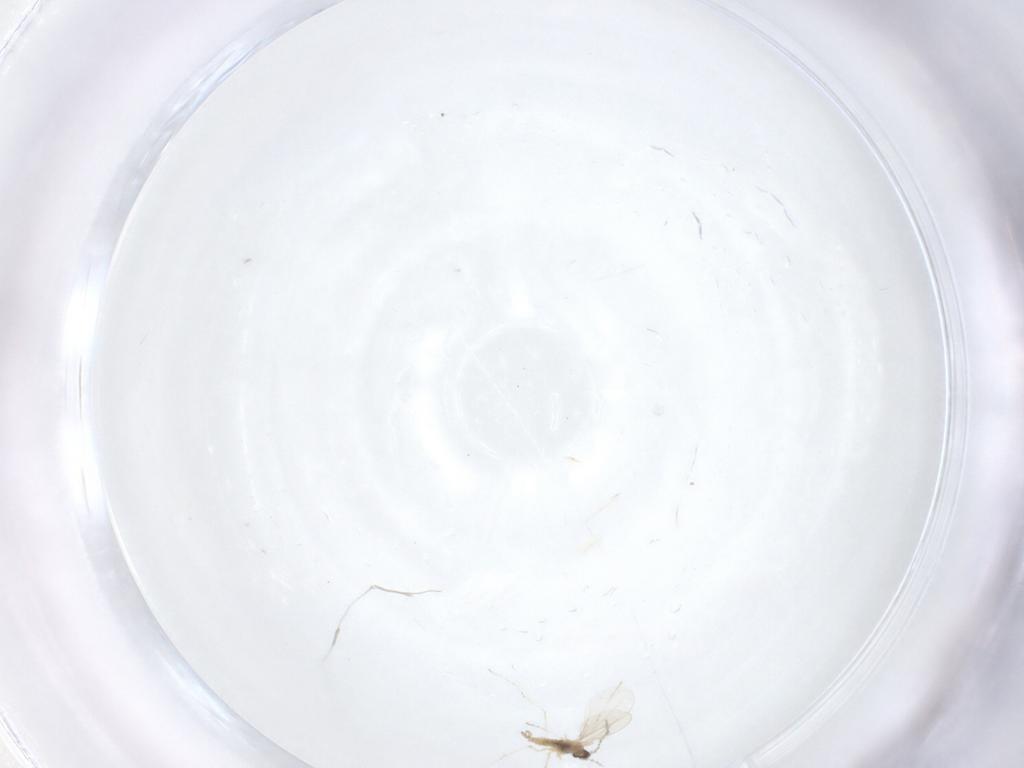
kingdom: Animalia
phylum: Arthropoda
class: Insecta
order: Diptera
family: Cecidomyiidae
